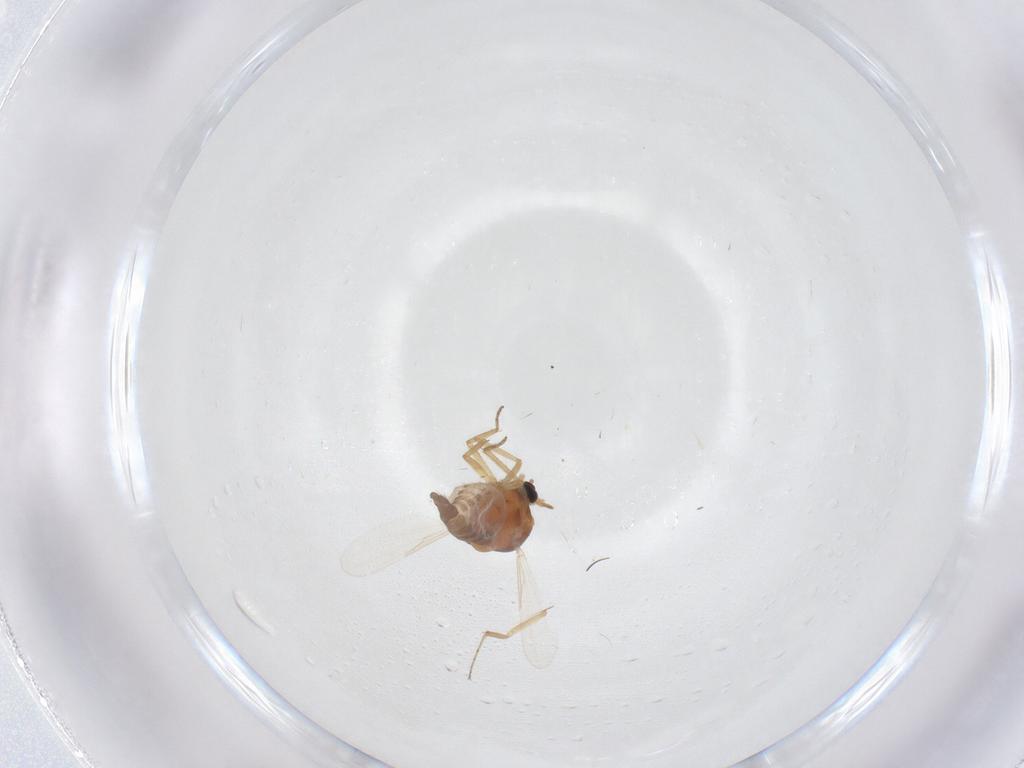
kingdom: Animalia
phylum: Arthropoda
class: Insecta
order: Diptera
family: Ceratopogonidae
